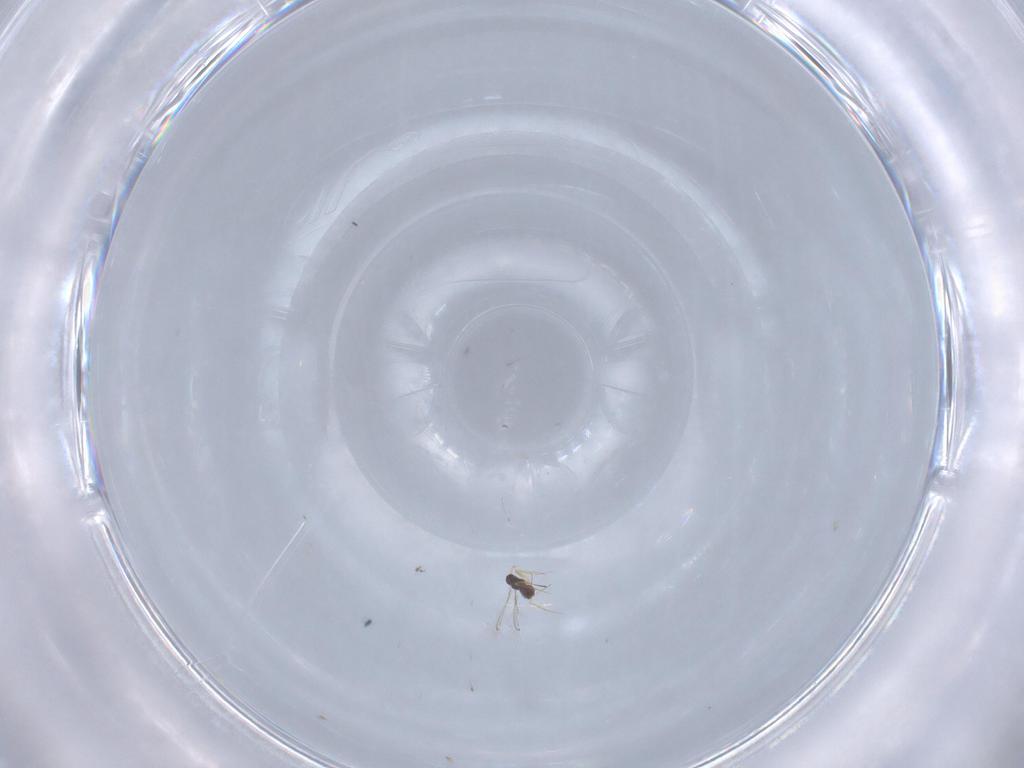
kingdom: Animalia
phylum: Arthropoda
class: Insecta
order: Hymenoptera
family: Mymaridae
